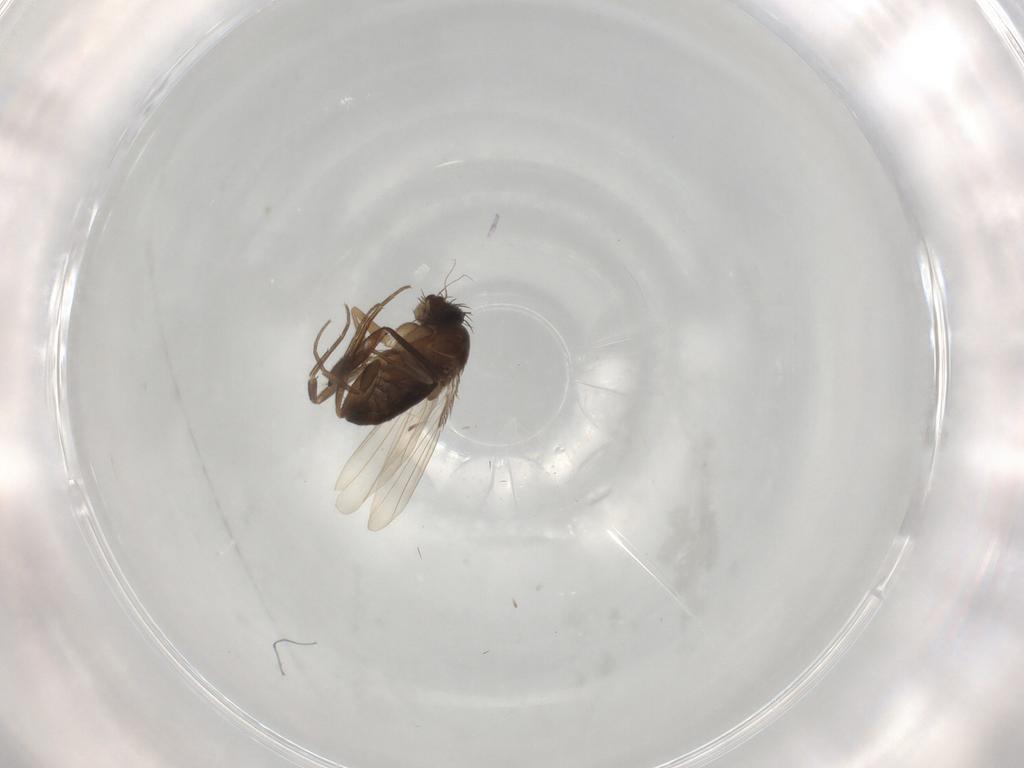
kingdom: Animalia
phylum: Arthropoda
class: Insecta
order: Diptera
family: Phoridae
